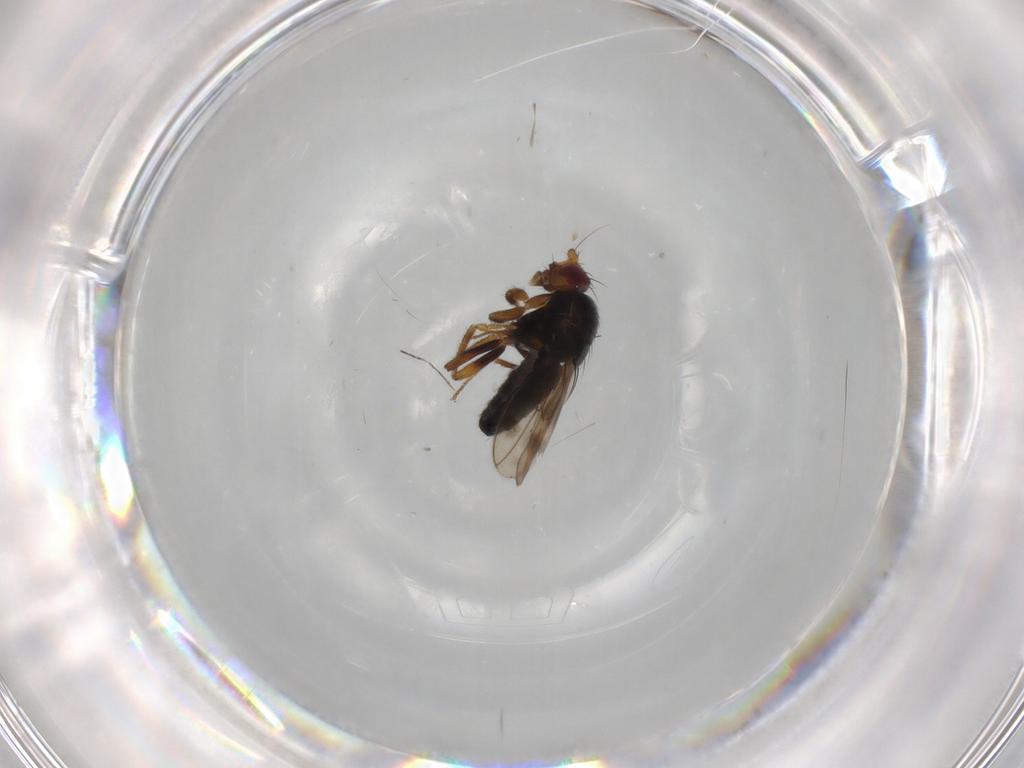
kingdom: Animalia
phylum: Arthropoda
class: Insecta
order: Diptera
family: Sphaeroceridae
